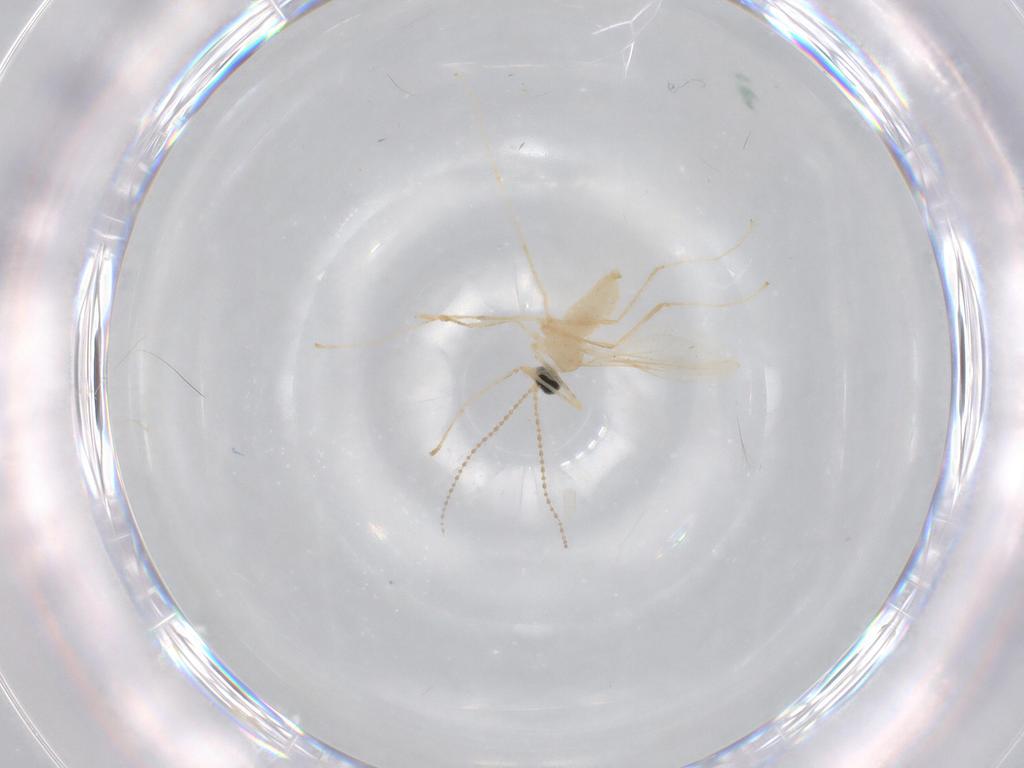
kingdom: Animalia
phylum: Arthropoda
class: Insecta
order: Diptera
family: Cecidomyiidae
